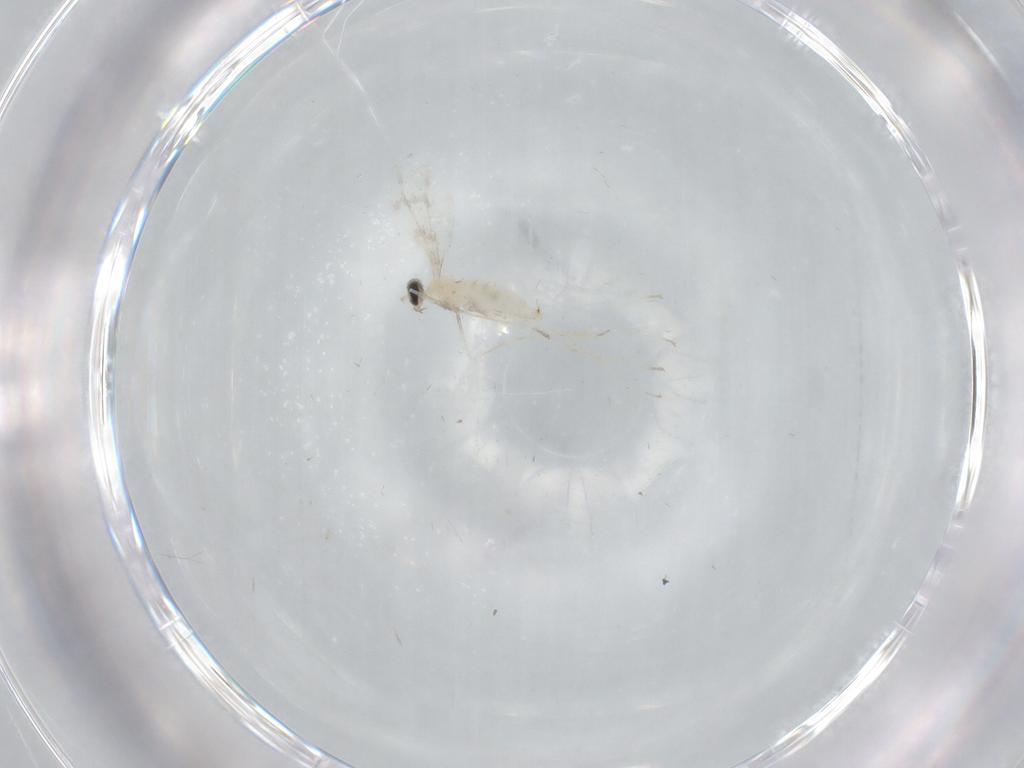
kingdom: Animalia
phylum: Arthropoda
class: Insecta
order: Diptera
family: Cecidomyiidae
